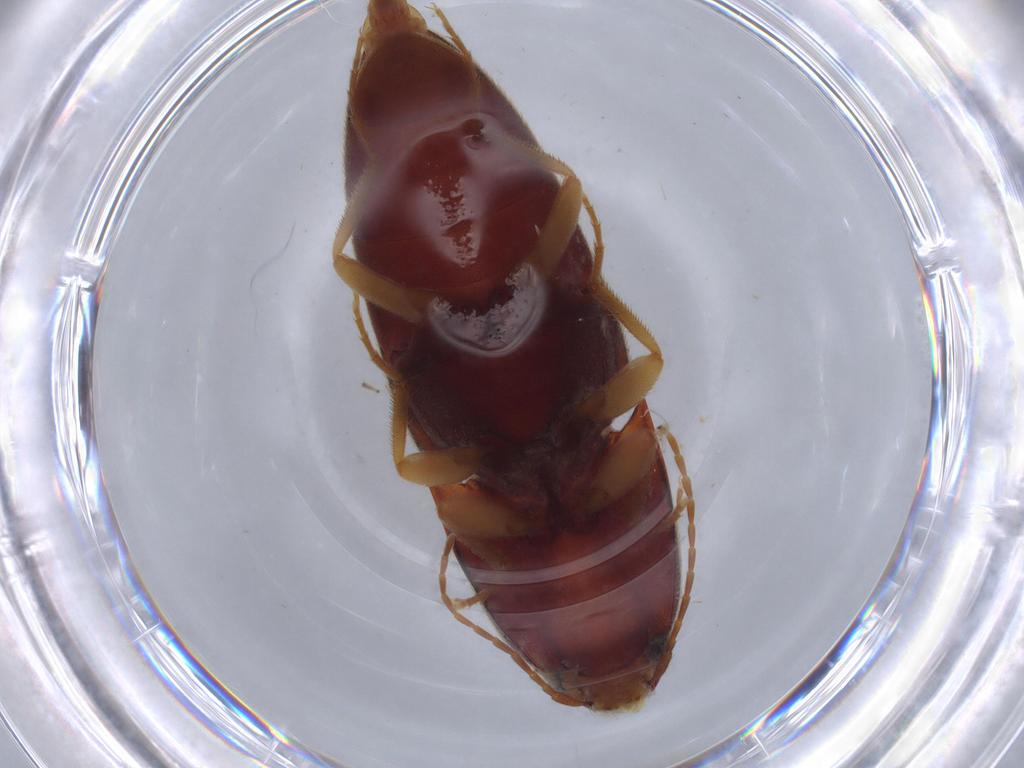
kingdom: Animalia
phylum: Arthropoda
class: Insecta
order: Coleoptera
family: Elateridae
